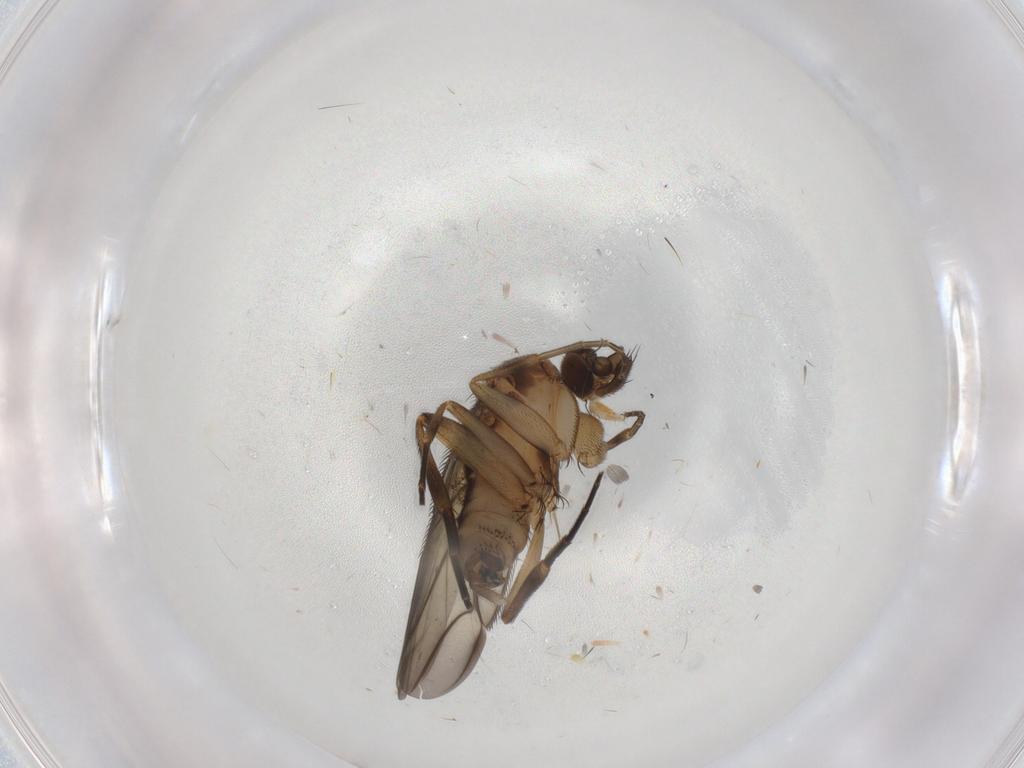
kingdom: Animalia
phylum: Arthropoda
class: Insecta
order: Diptera
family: Phoridae
